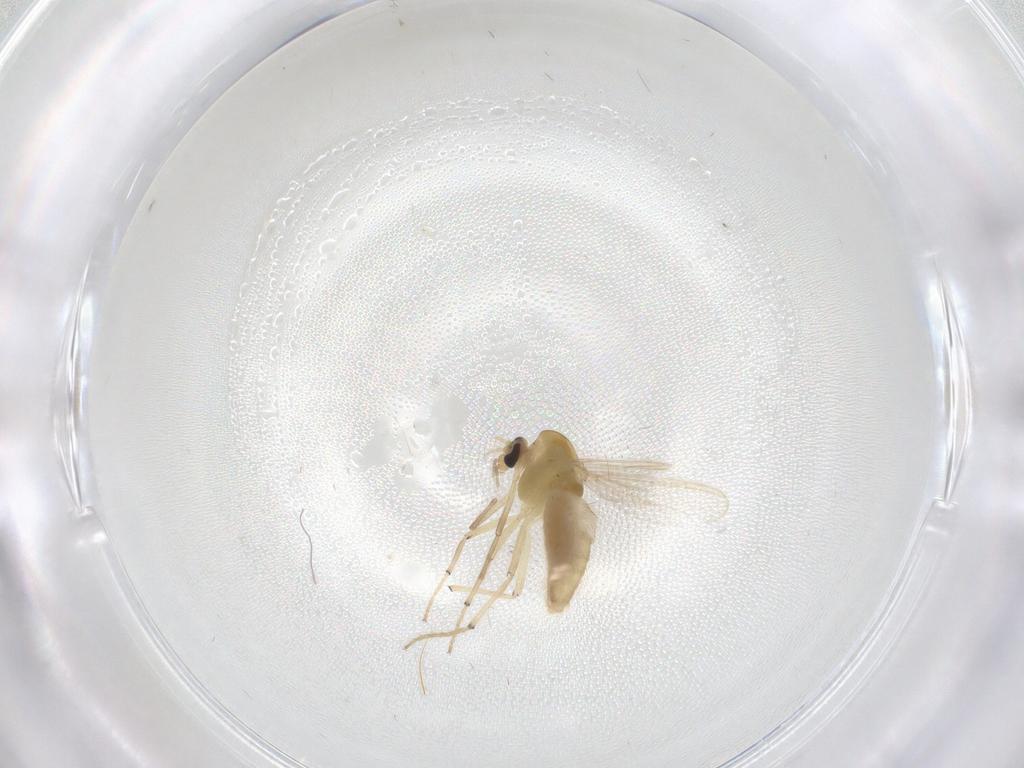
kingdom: Animalia
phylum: Arthropoda
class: Insecta
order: Diptera
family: Chironomidae
